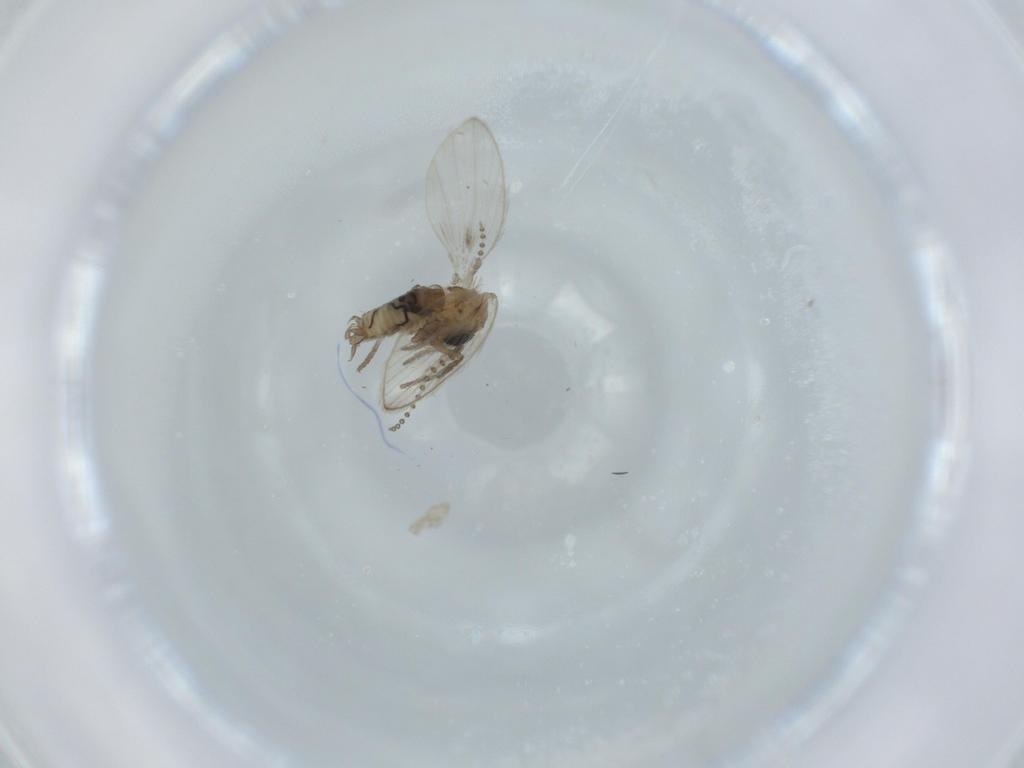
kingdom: Animalia
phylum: Arthropoda
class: Insecta
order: Diptera
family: Psychodidae
